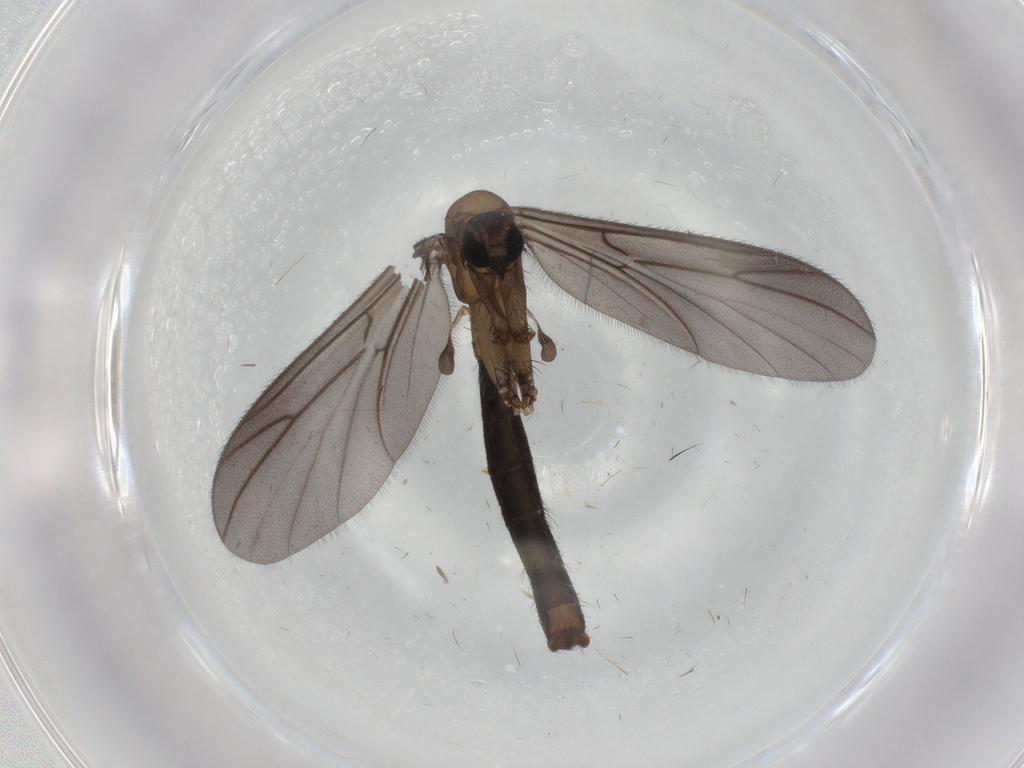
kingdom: Animalia
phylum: Arthropoda
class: Insecta
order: Diptera
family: Ditomyiidae
